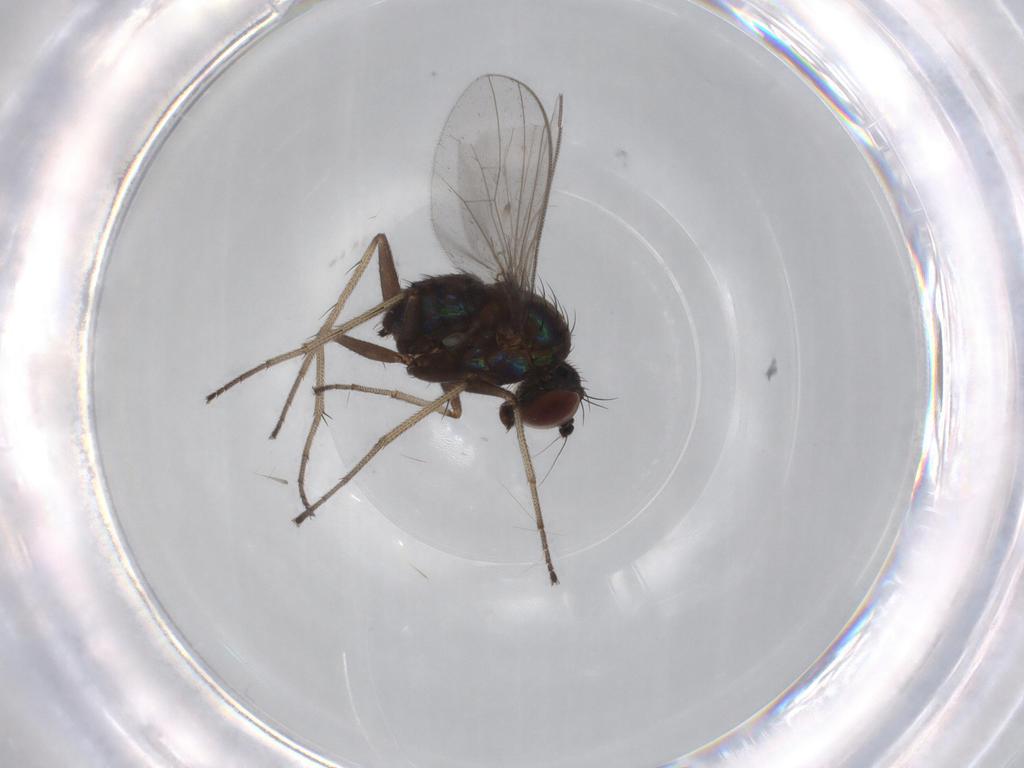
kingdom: Animalia
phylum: Arthropoda
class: Insecta
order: Diptera
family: Dolichopodidae
